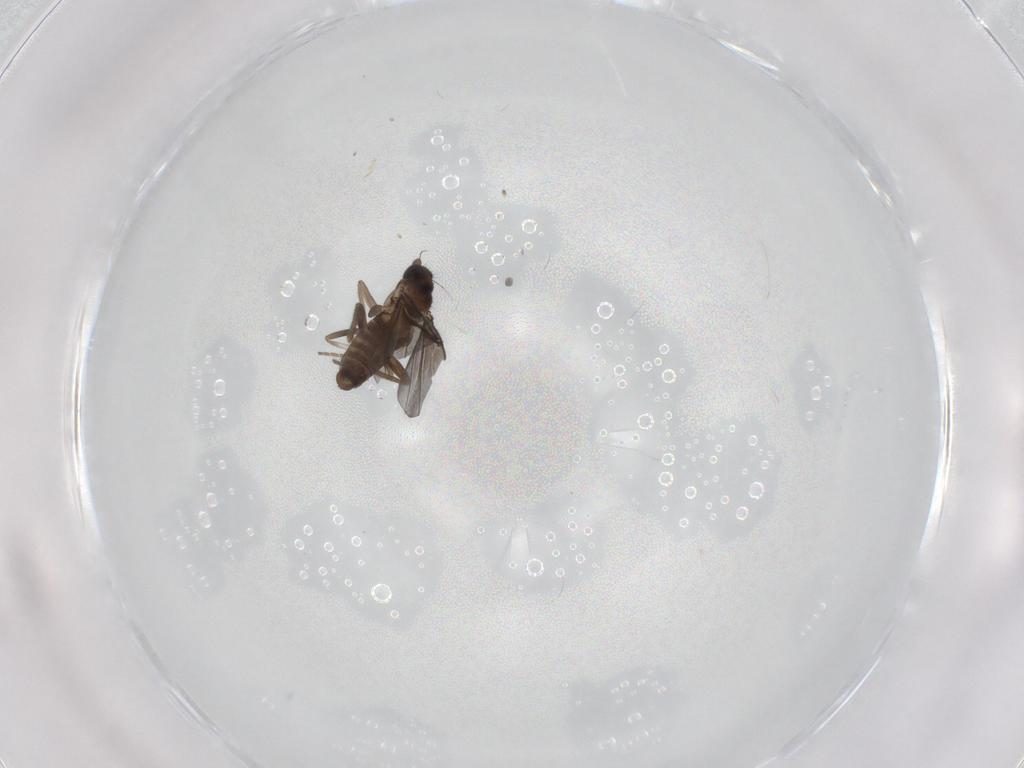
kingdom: Animalia
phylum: Arthropoda
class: Insecta
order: Diptera
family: Phoridae
